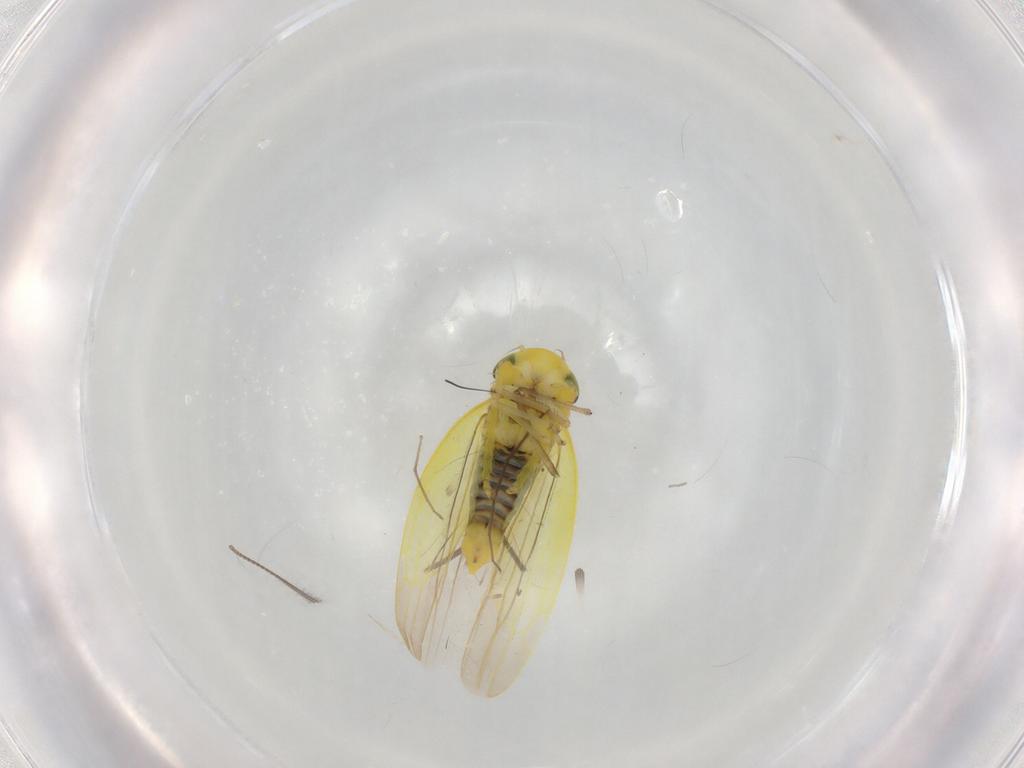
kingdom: Animalia
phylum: Arthropoda
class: Insecta
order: Hemiptera
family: Cicadellidae
